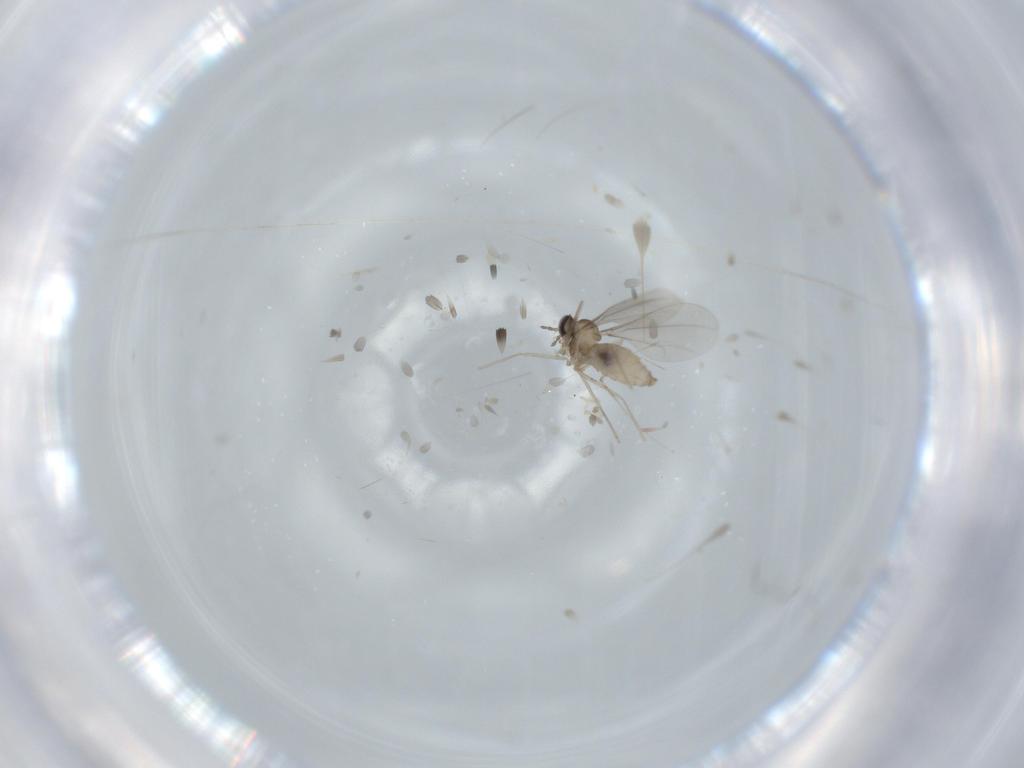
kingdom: Animalia
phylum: Arthropoda
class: Insecta
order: Diptera
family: Cecidomyiidae
